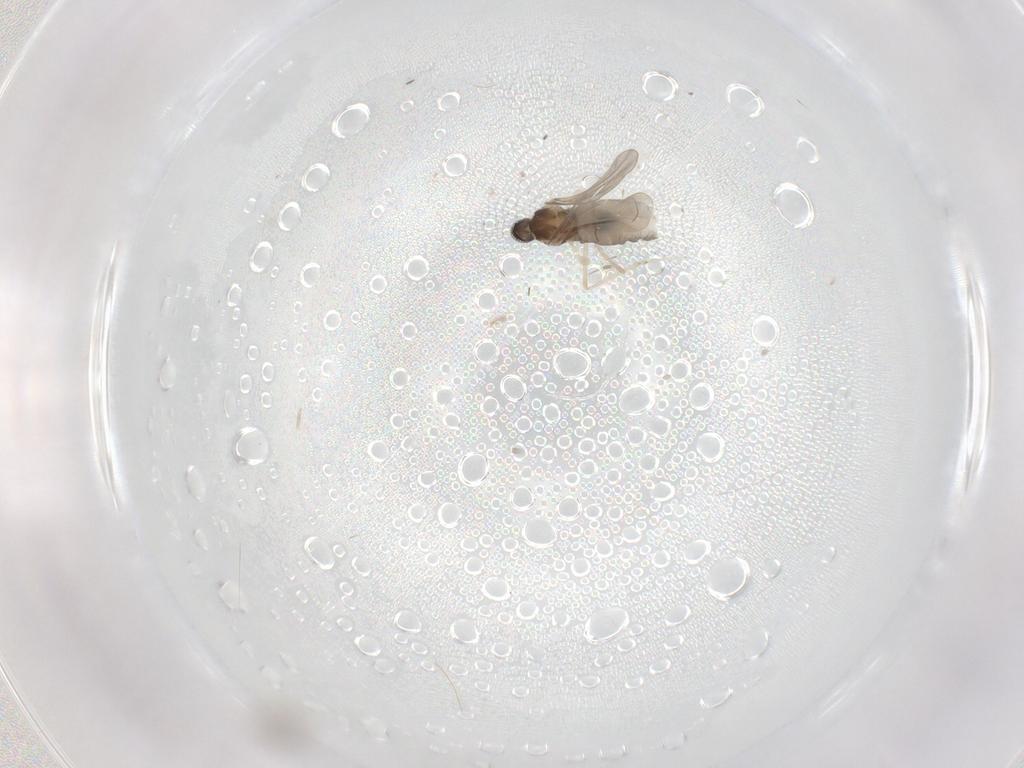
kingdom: Animalia
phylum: Arthropoda
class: Insecta
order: Diptera
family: Cecidomyiidae
